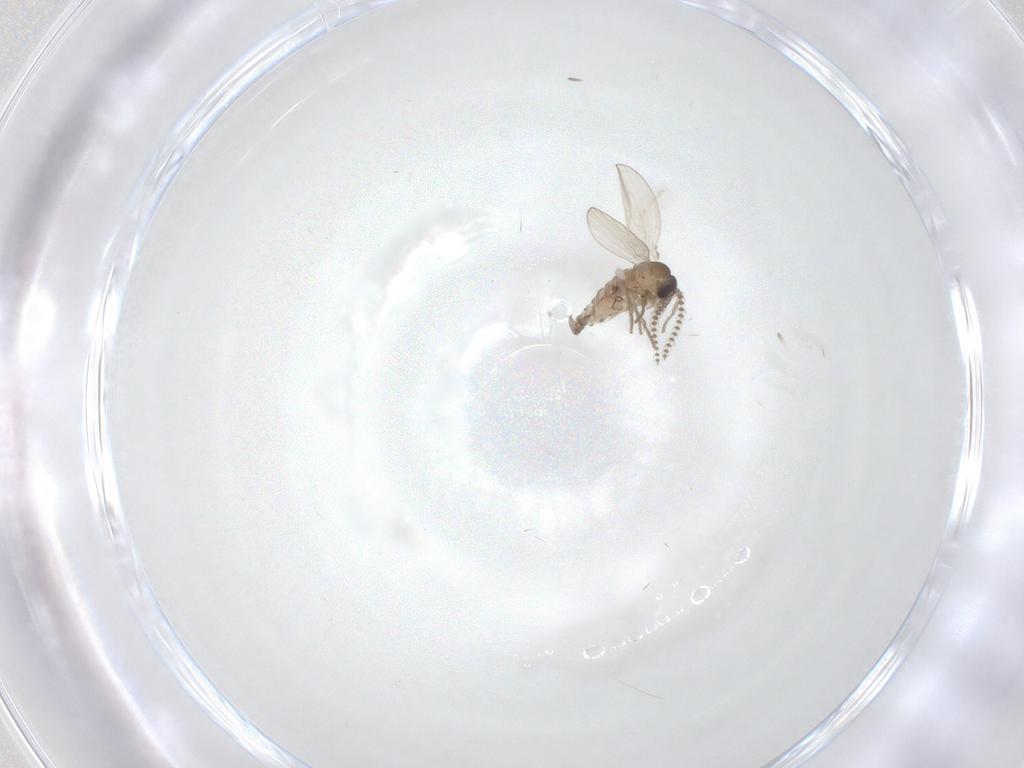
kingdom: Animalia
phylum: Arthropoda
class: Insecta
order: Diptera
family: Psychodidae
